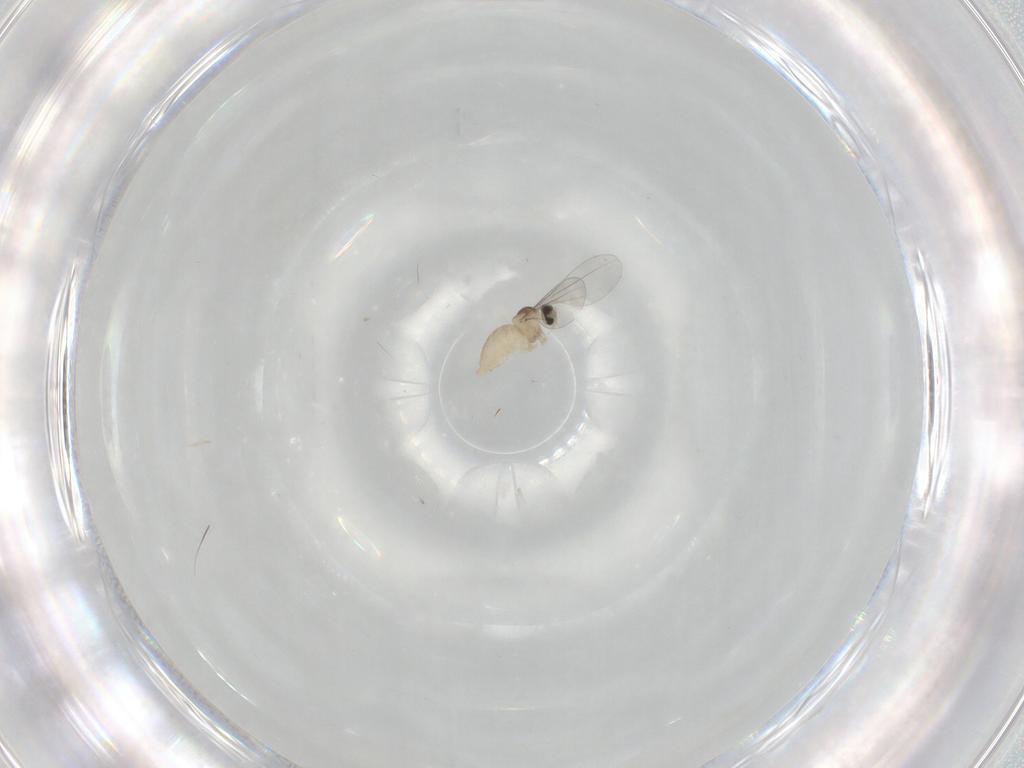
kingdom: Animalia
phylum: Arthropoda
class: Insecta
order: Diptera
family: Cecidomyiidae
